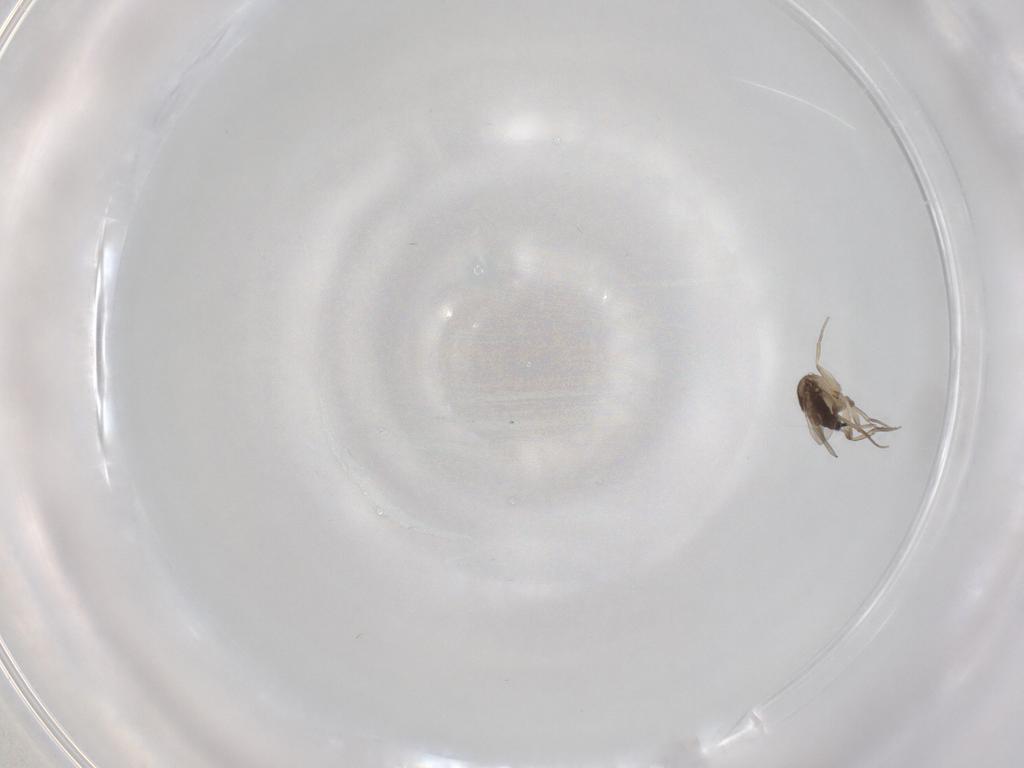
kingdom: Animalia
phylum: Arthropoda
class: Insecta
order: Diptera
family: Phoridae
